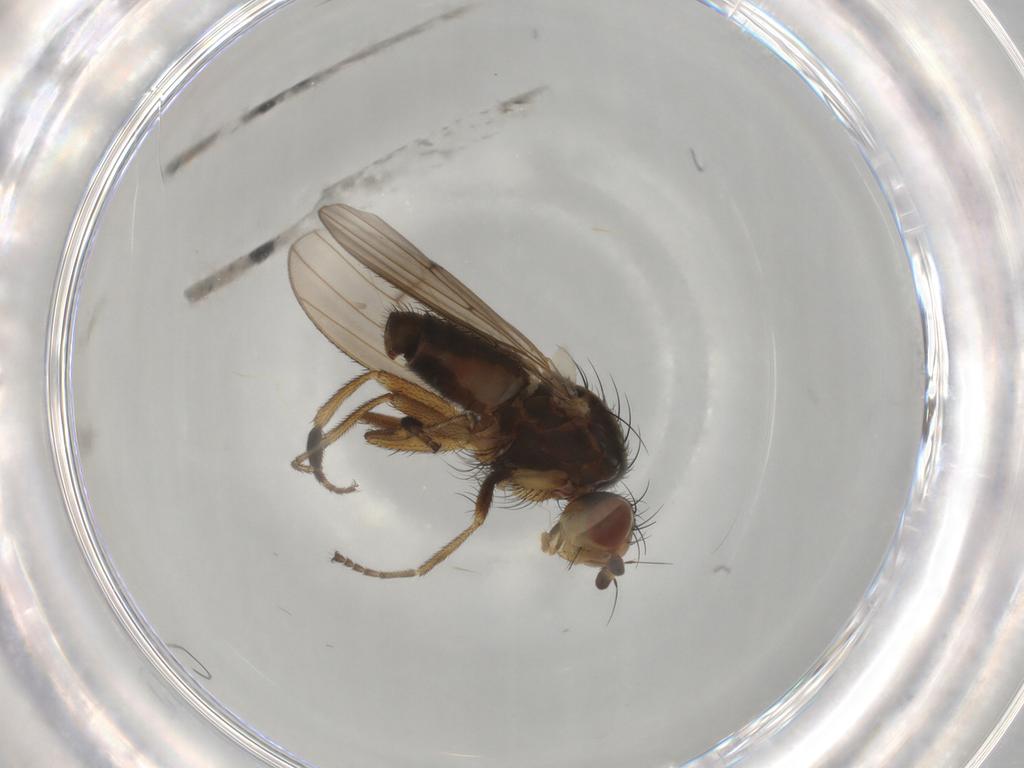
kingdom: Animalia
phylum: Arthropoda
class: Insecta
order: Diptera
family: Heleomyzidae
